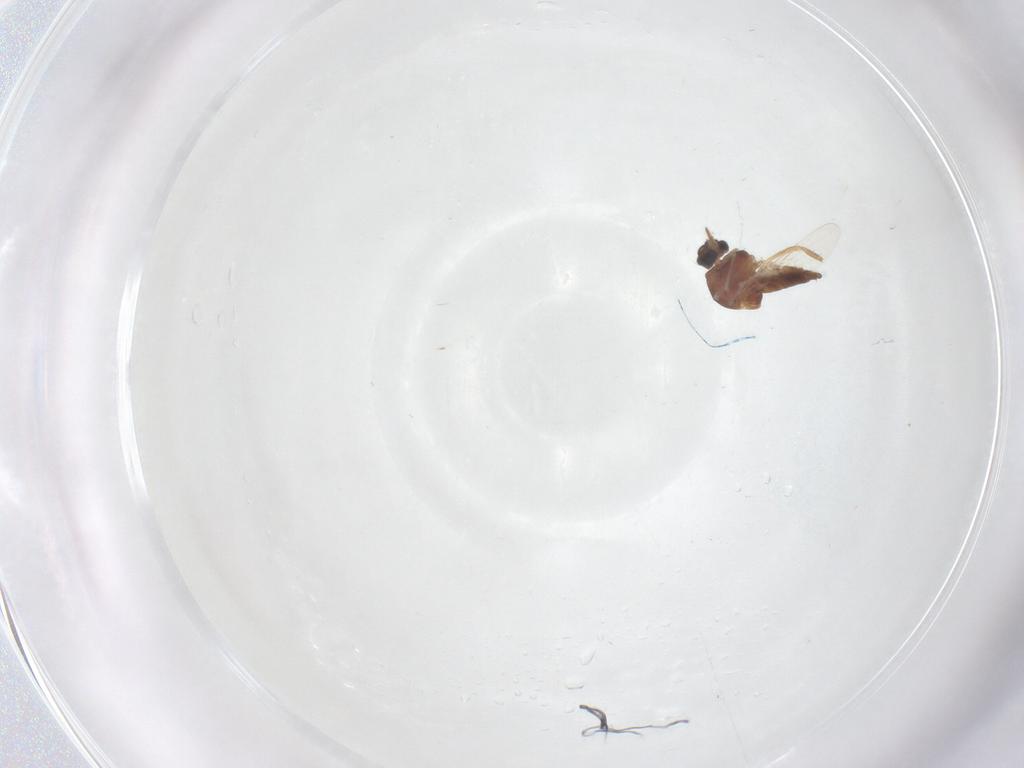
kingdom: Animalia
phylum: Arthropoda
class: Insecta
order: Diptera
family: Ceratopogonidae
